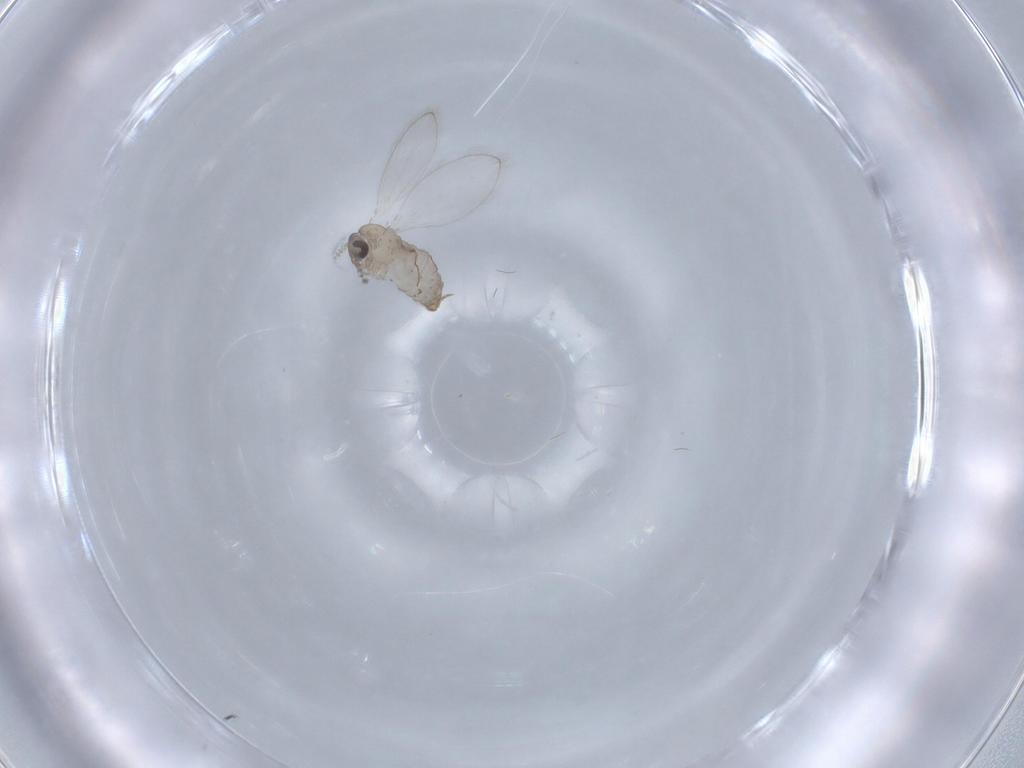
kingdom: Animalia
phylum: Arthropoda
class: Insecta
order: Diptera
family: Psychodidae
